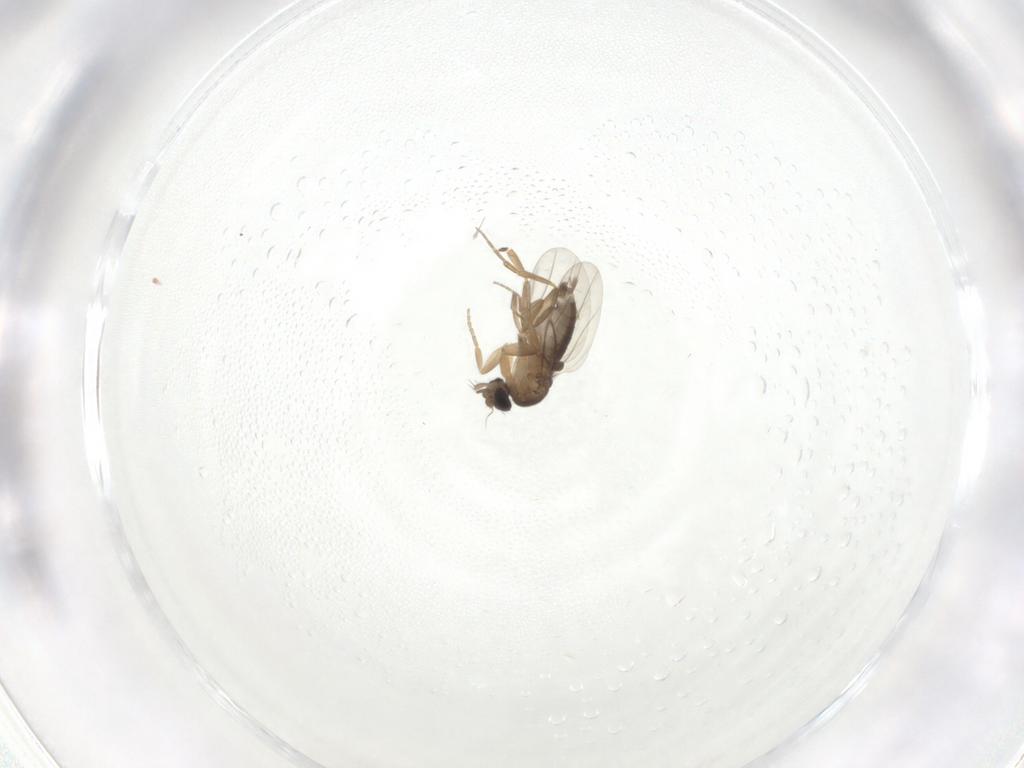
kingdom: Animalia
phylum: Arthropoda
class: Insecta
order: Diptera
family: Phoridae
